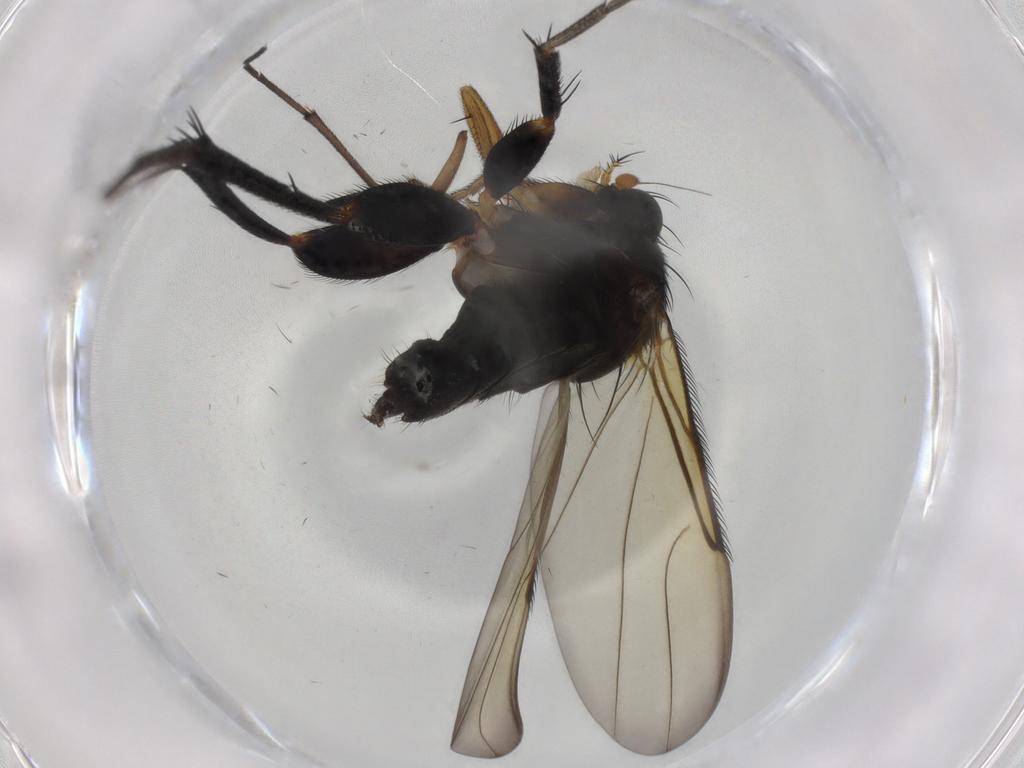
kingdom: Animalia
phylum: Arthropoda
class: Insecta
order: Diptera
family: Phoridae
